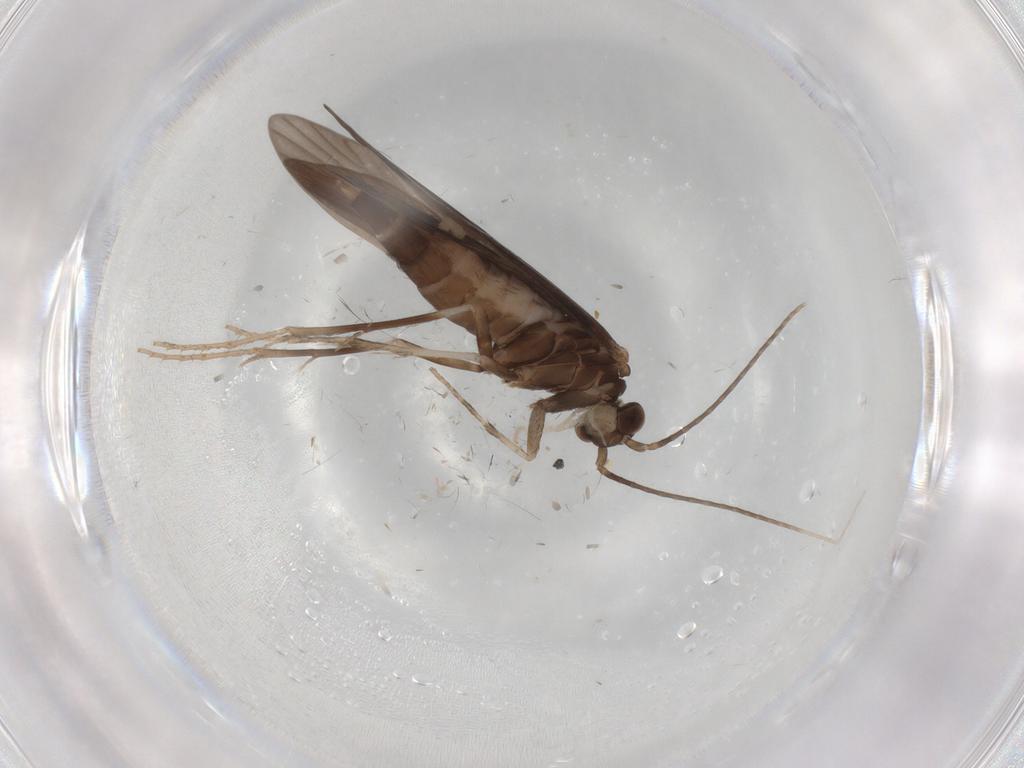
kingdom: Animalia
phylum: Arthropoda
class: Insecta
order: Trichoptera
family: Xiphocentronidae
